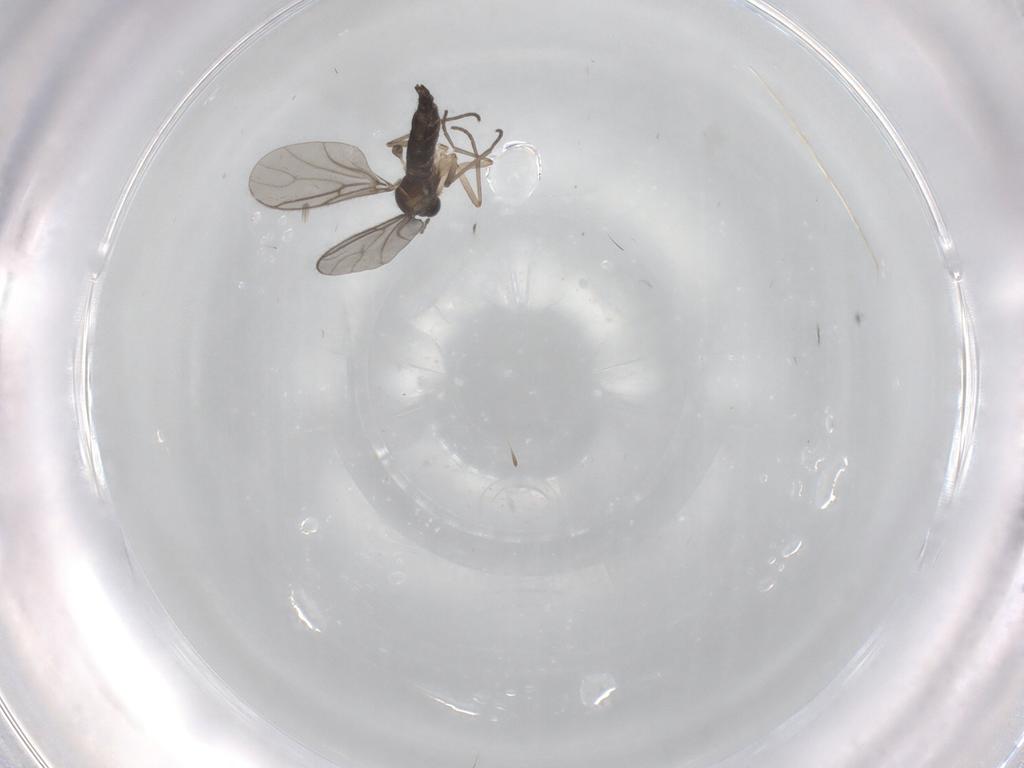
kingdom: Animalia
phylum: Arthropoda
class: Insecta
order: Diptera
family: Sciaridae
